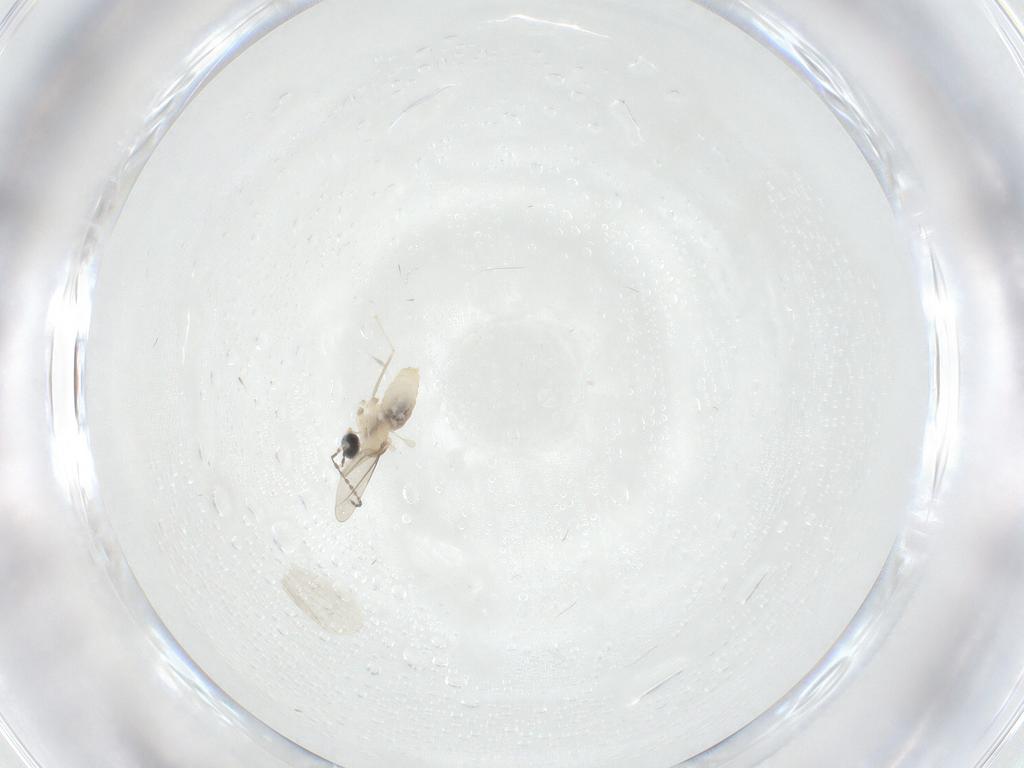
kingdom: Animalia
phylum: Arthropoda
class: Insecta
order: Diptera
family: Cecidomyiidae
